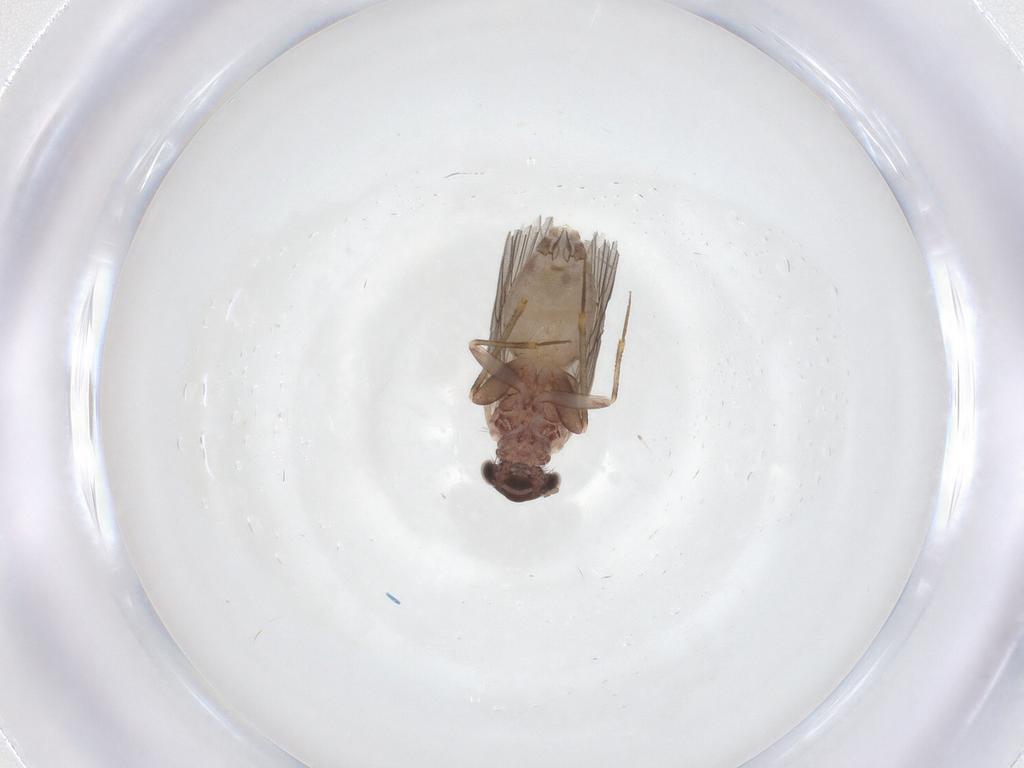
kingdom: Animalia
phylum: Arthropoda
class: Insecta
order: Psocodea
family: Lepidopsocidae
